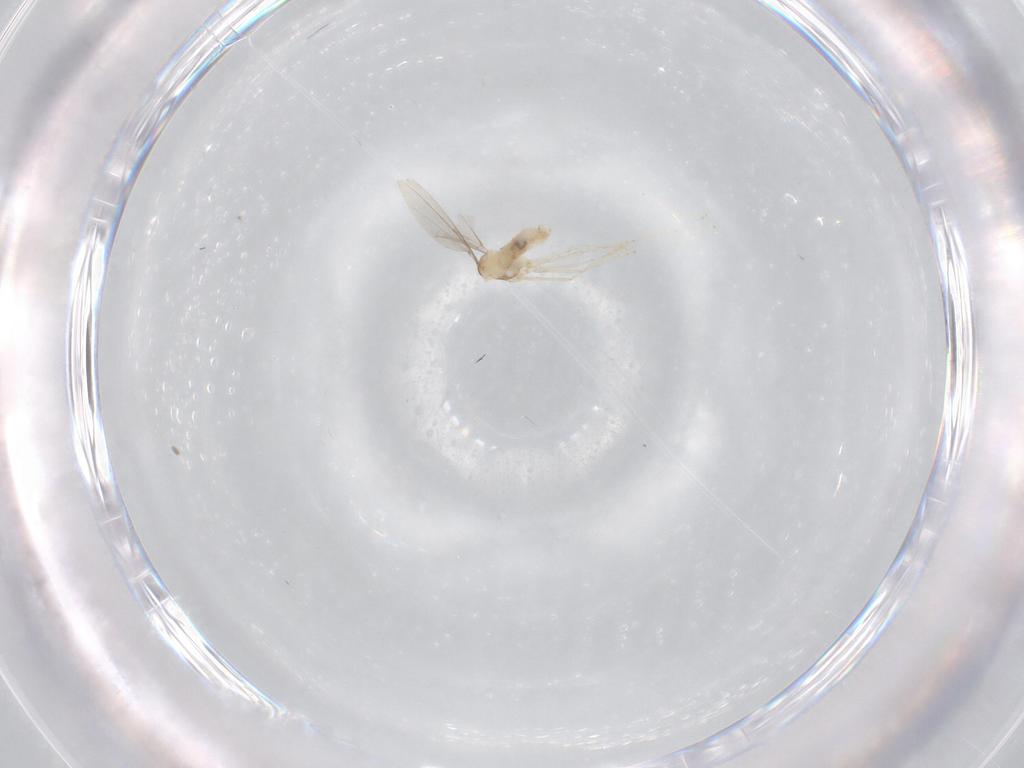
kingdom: Animalia
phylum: Arthropoda
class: Insecta
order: Diptera
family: Cecidomyiidae
